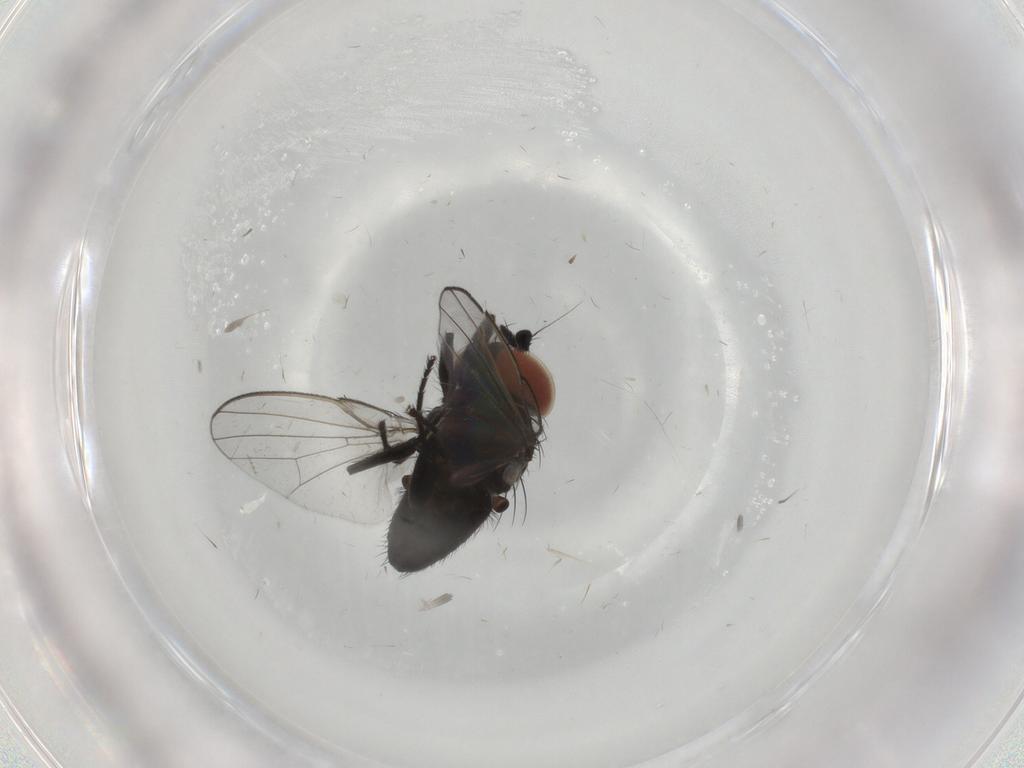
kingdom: Animalia
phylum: Arthropoda
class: Insecta
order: Diptera
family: Milichiidae
